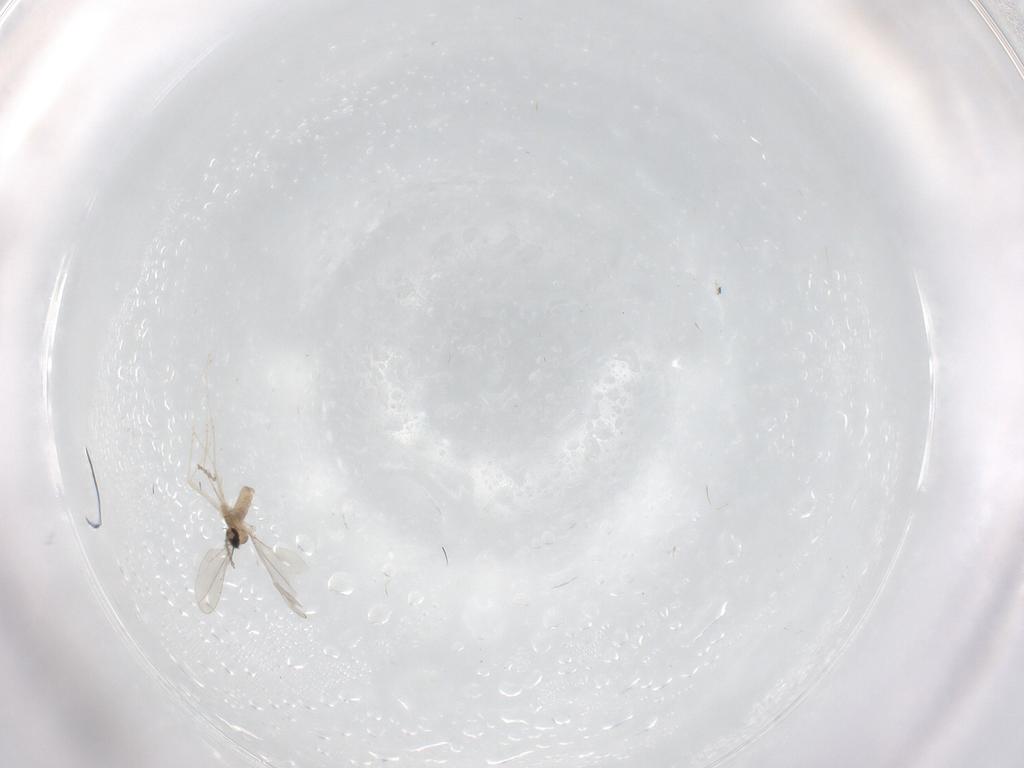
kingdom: Animalia
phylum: Arthropoda
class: Insecta
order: Diptera
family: Cecidomyiidae
